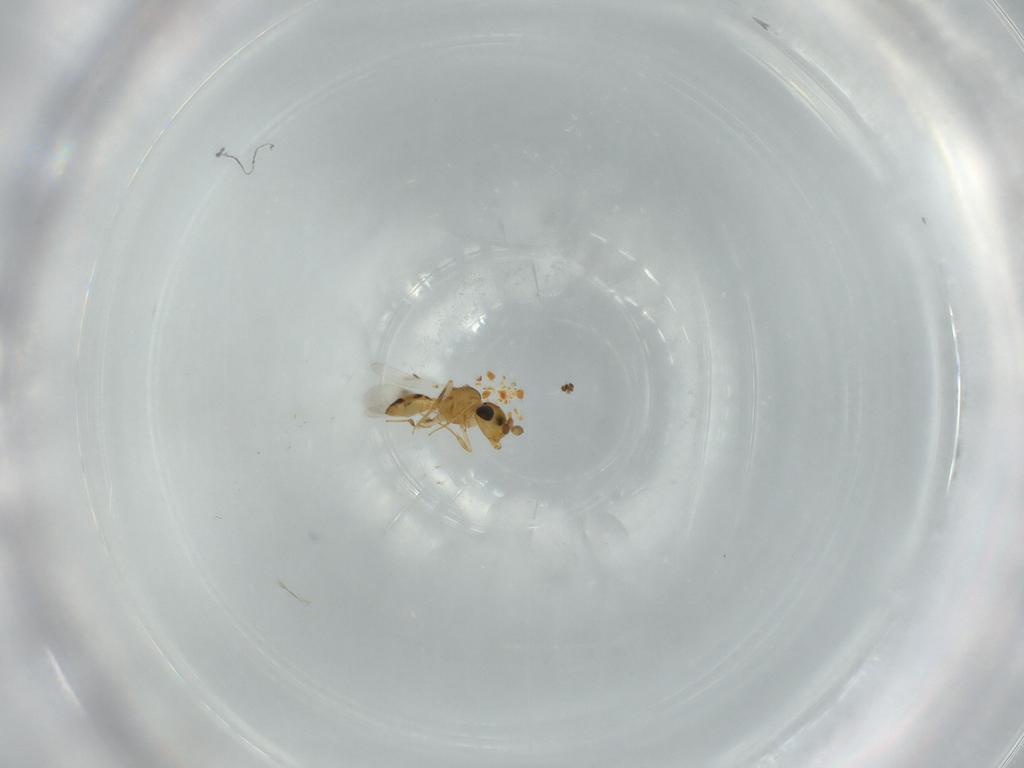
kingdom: Animalia
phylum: Arthropoda
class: Insecta
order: Hymenoptera
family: Scelionidae
